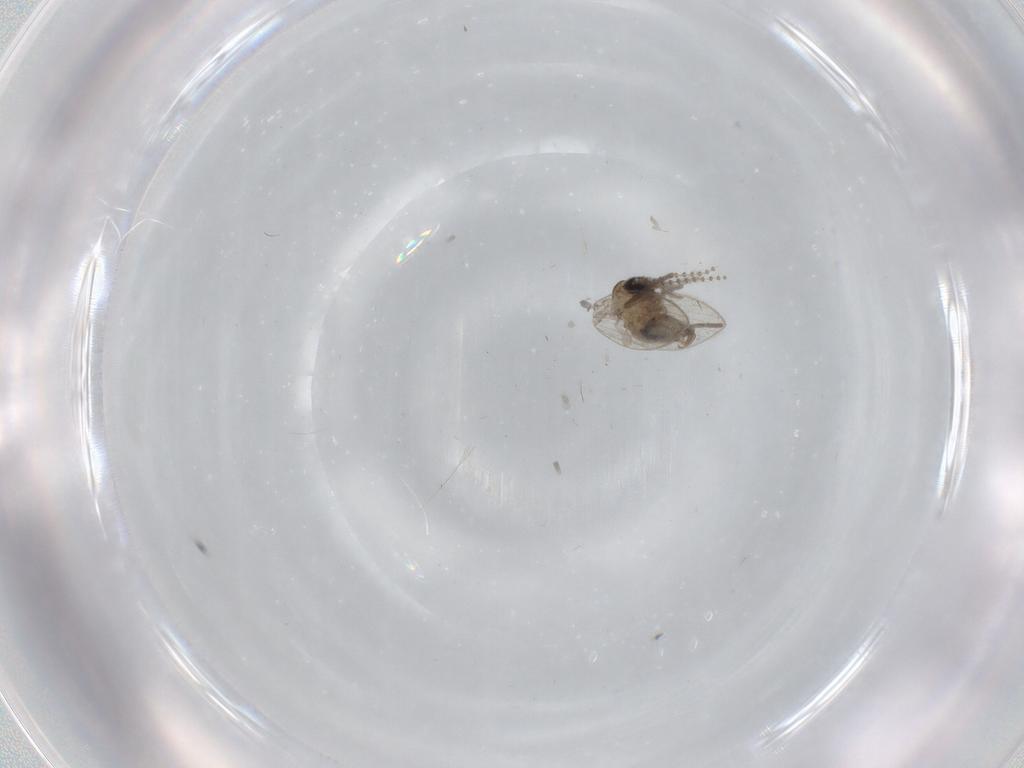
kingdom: Animalia
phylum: Arthropoda
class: Insecta
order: Diptera
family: Psychodidae
